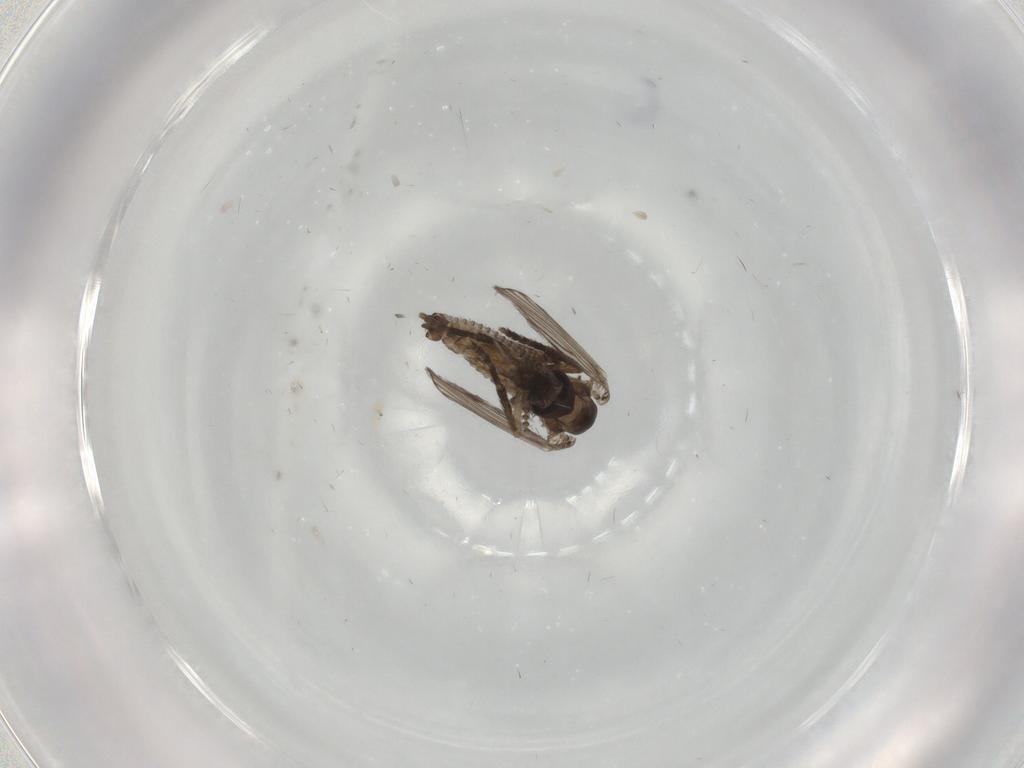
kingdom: Animalia
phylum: Arthropoda
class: Insecta
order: Diptera
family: Psychodidae
